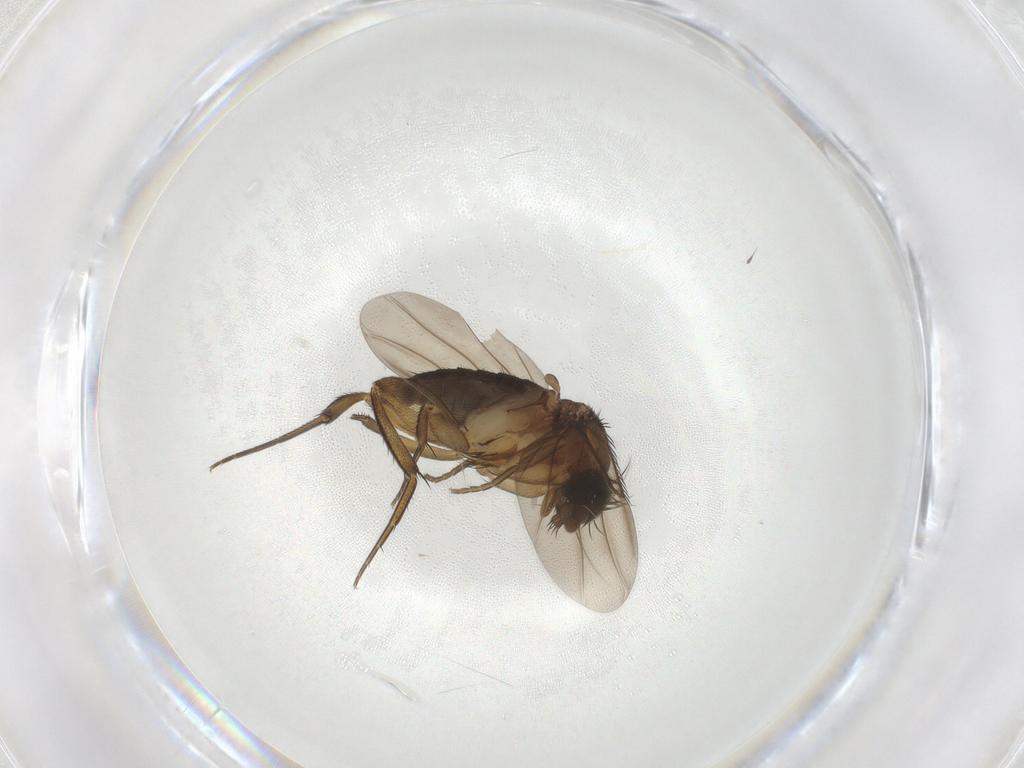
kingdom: Animalia
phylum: Arthropoda
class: Insecta
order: Diptera
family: Phoridae
